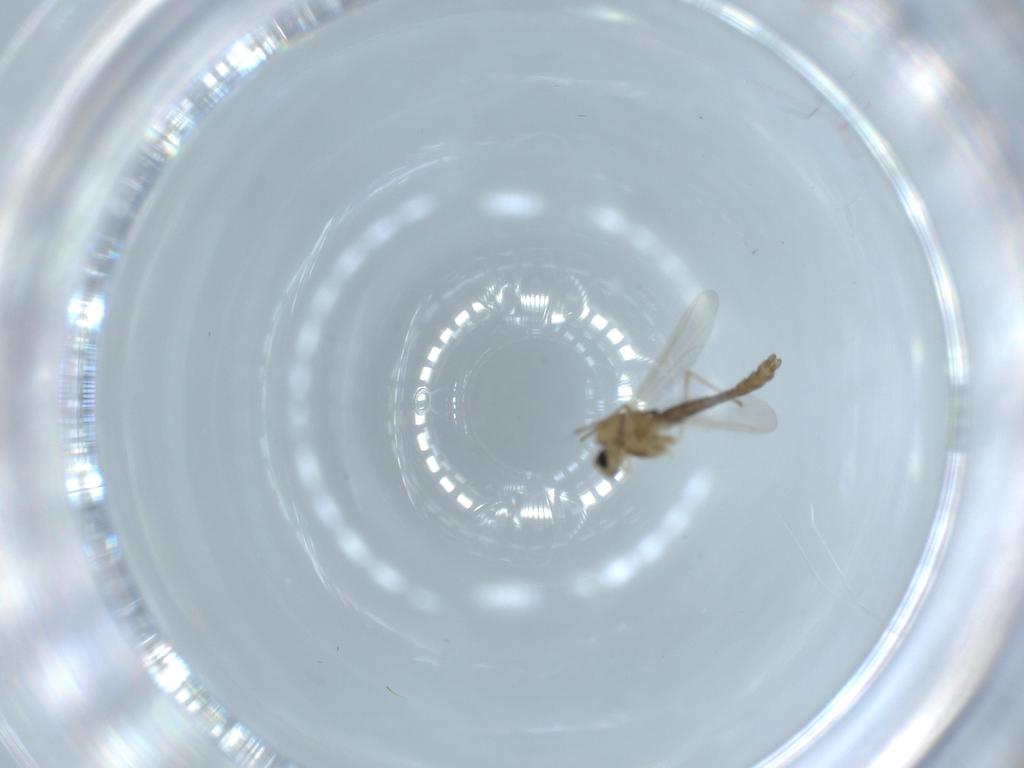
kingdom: Animalia
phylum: Arthropoda
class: Insecta
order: Diptera
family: Chironomidae
